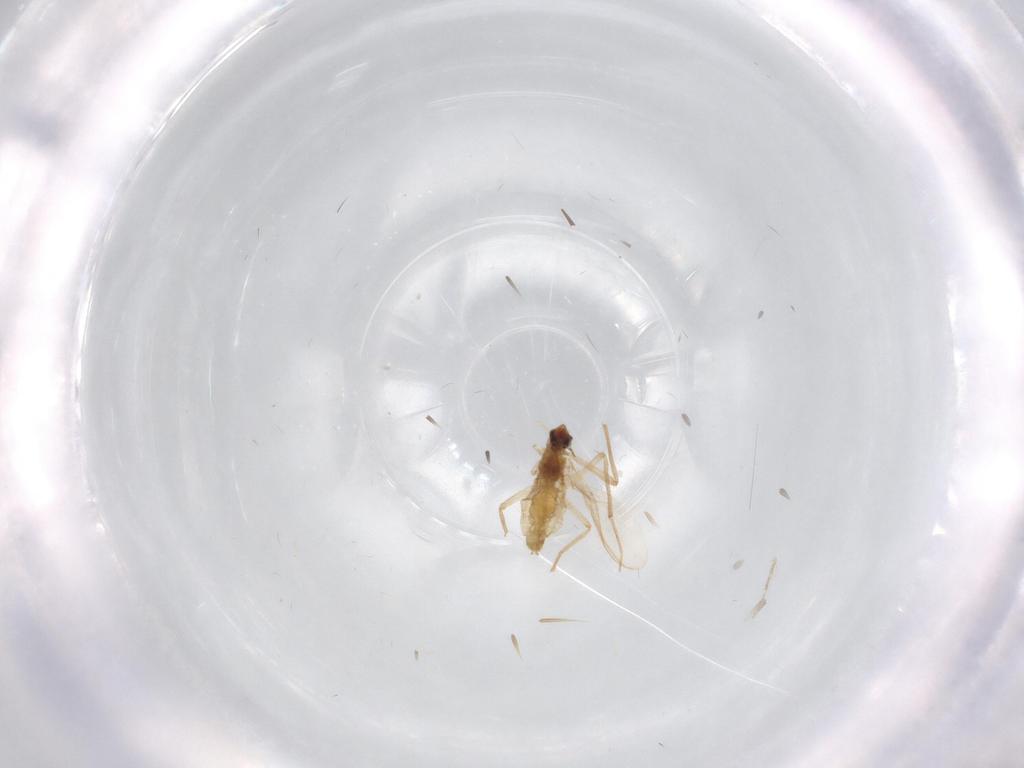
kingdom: Animalia
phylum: Arthropoda
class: Insecta
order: Diptera
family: Chironomidae
